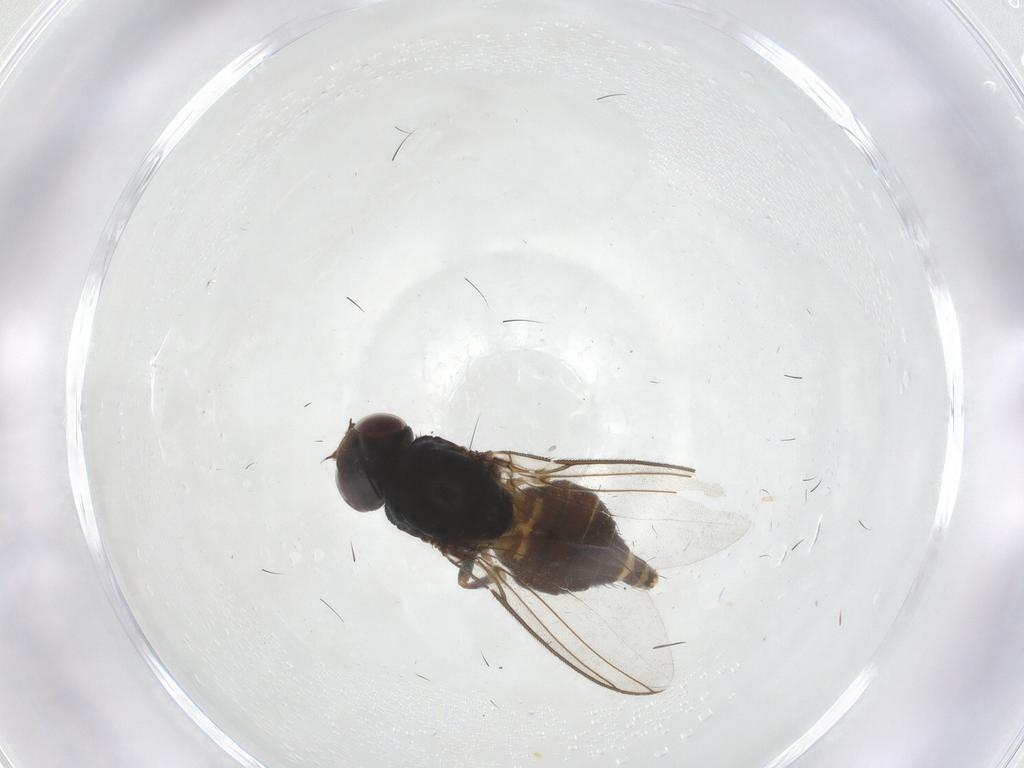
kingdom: Animalia
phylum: Arthropoda
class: Insecta
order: Diptera
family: Chloropidae
